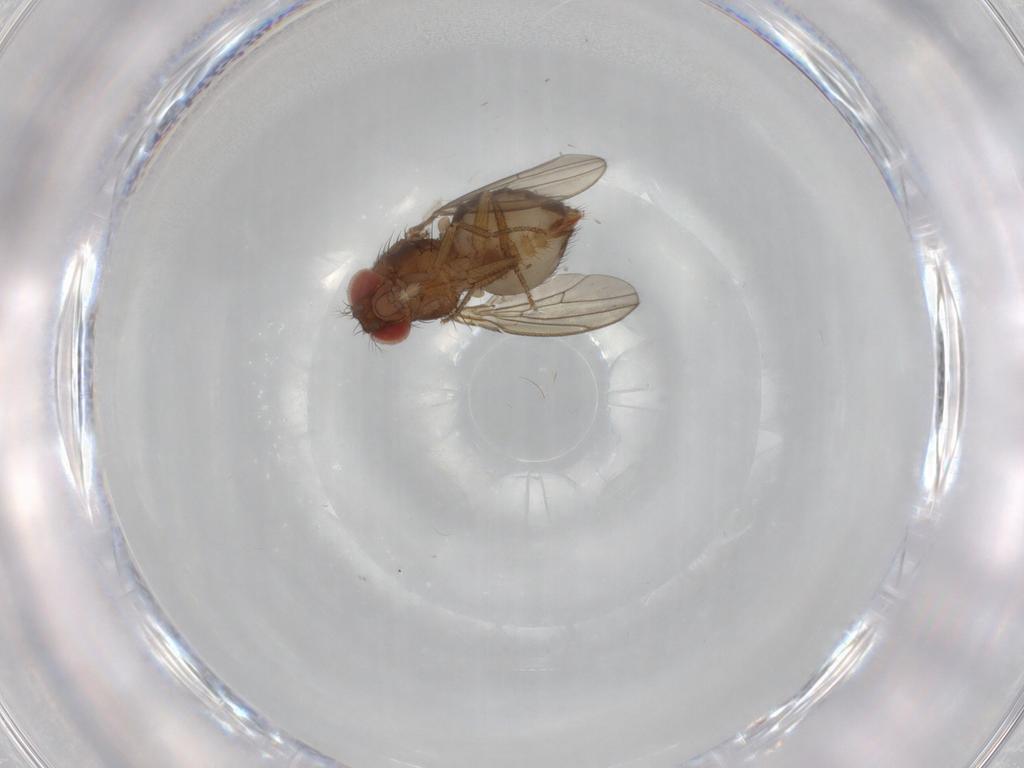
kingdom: Animalia
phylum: Arthropoda
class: Insecta
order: Diptera
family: Drosophilidae
